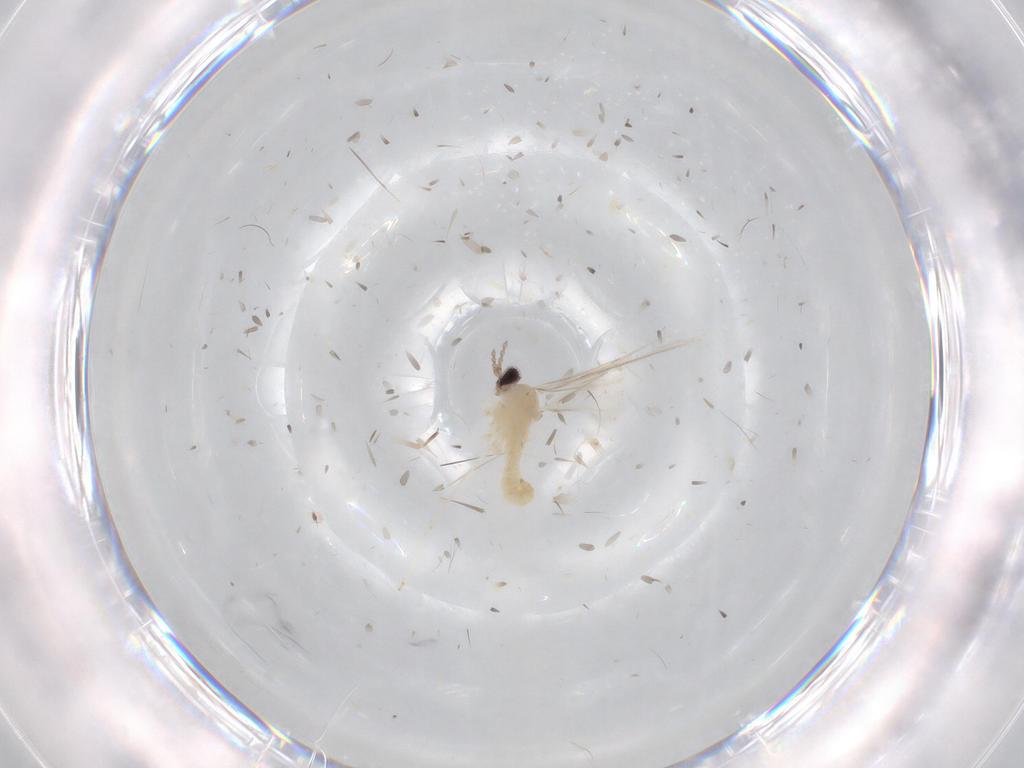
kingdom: Animalia
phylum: Arthropoda
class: Insecta
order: Diptera
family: Cecidomyiidae
